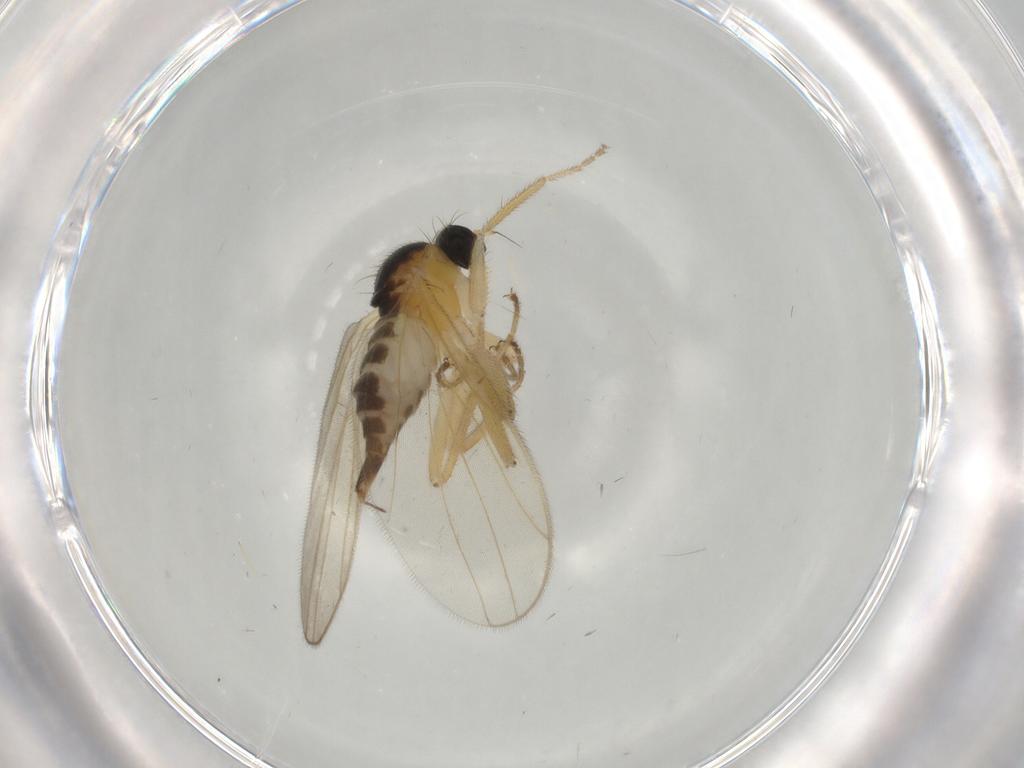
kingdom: Animalia
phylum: Arthropoda
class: Insecta
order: Diptera
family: Hybotidae
